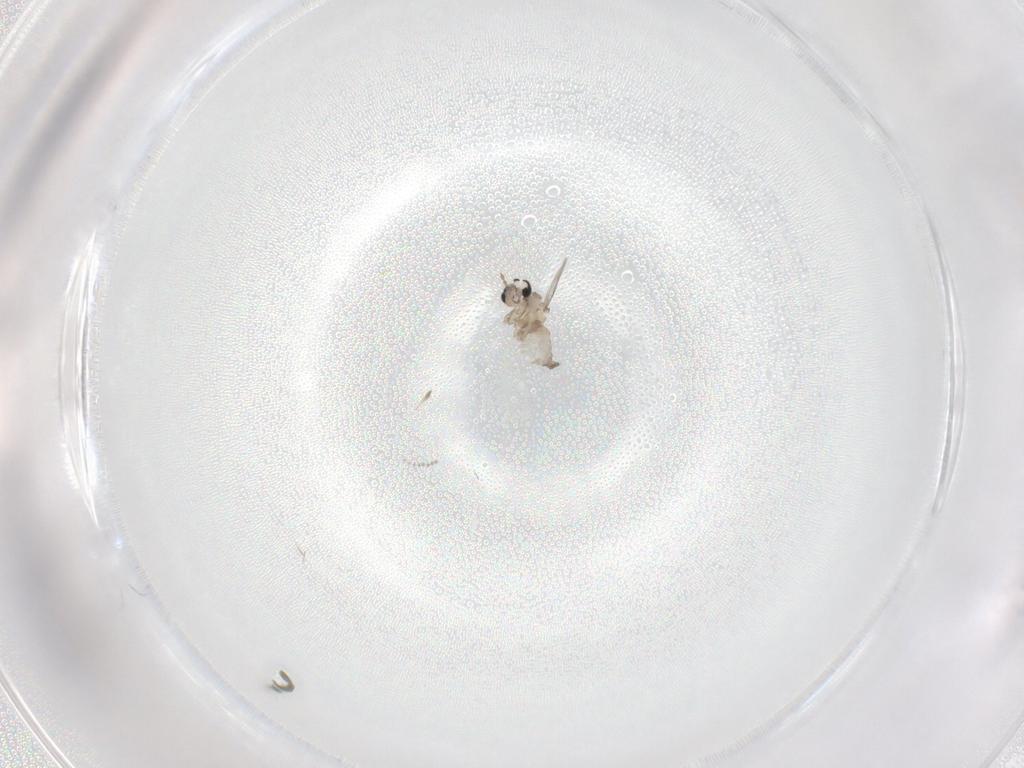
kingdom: Animalia
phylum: Arthropoda
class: Insecta
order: Diptera
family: Cecidomyiidae
